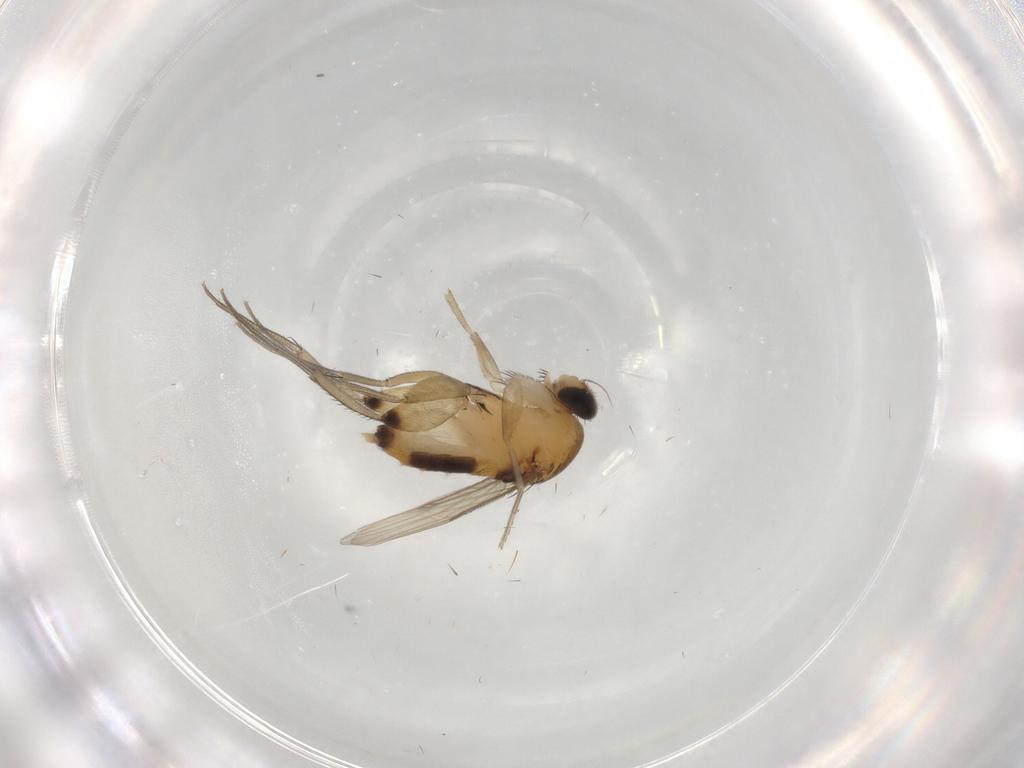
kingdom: Animalia
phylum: Arthropoda
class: Insecta
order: Diptera
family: Phoridae
